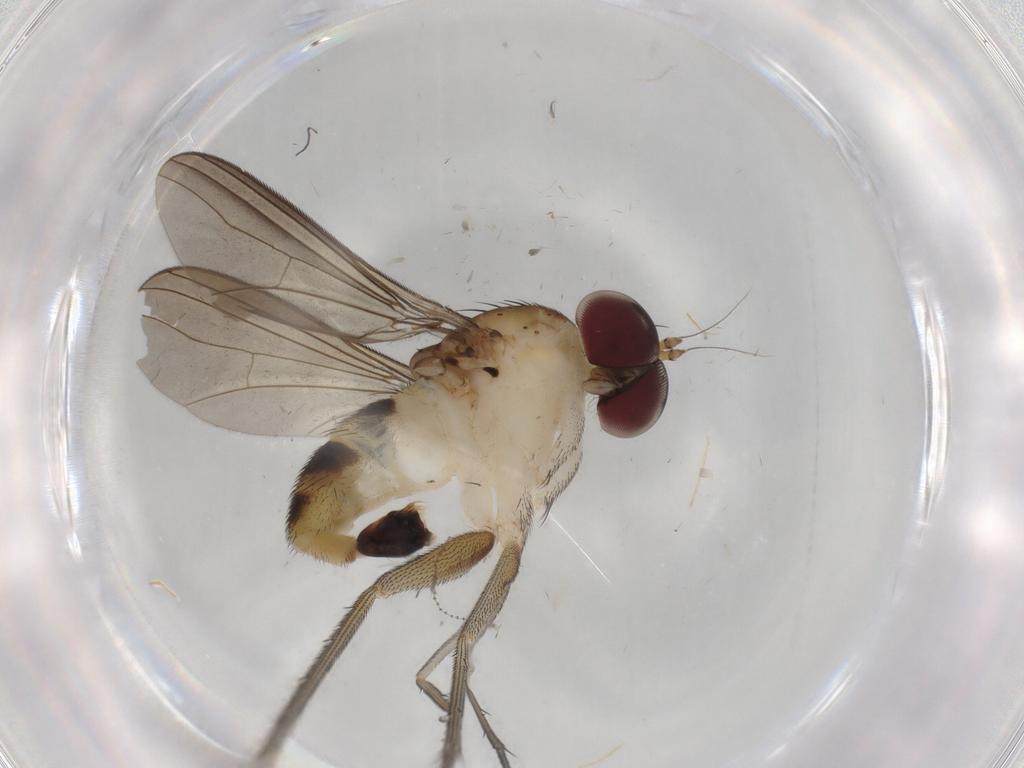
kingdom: Animalia
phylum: Arthropoda
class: Insecta
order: Diptera
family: Dolichopodidae
